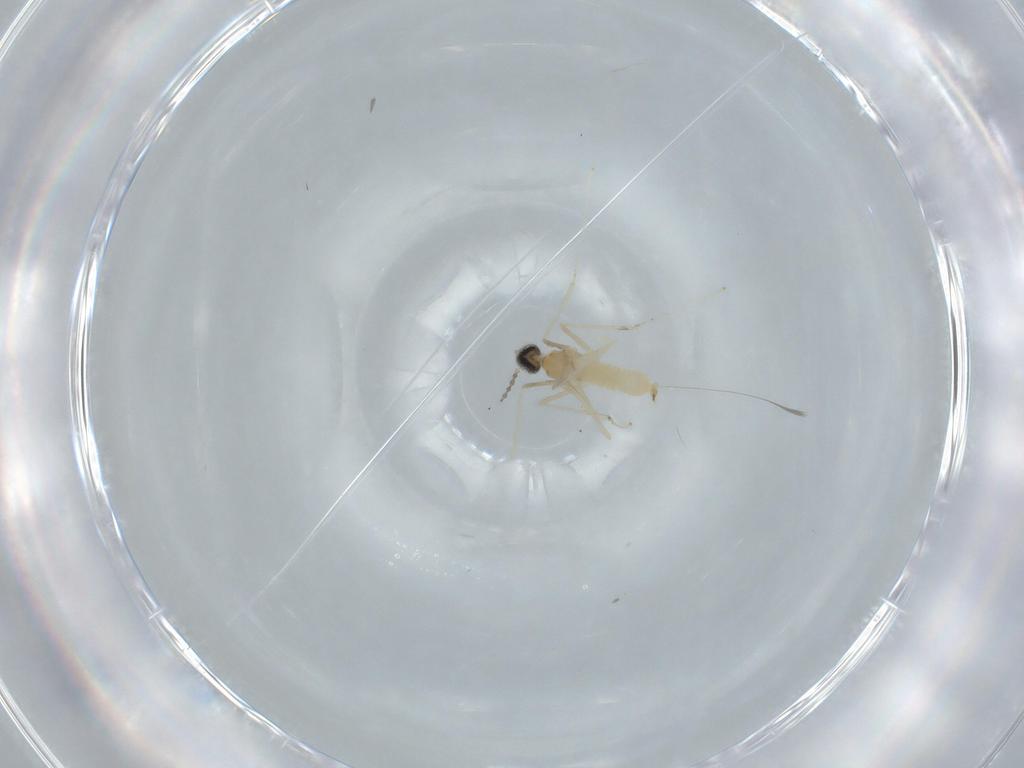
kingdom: Animalia
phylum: Arthropoda
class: Insecta
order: Diptera
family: Cecidomyiidae
